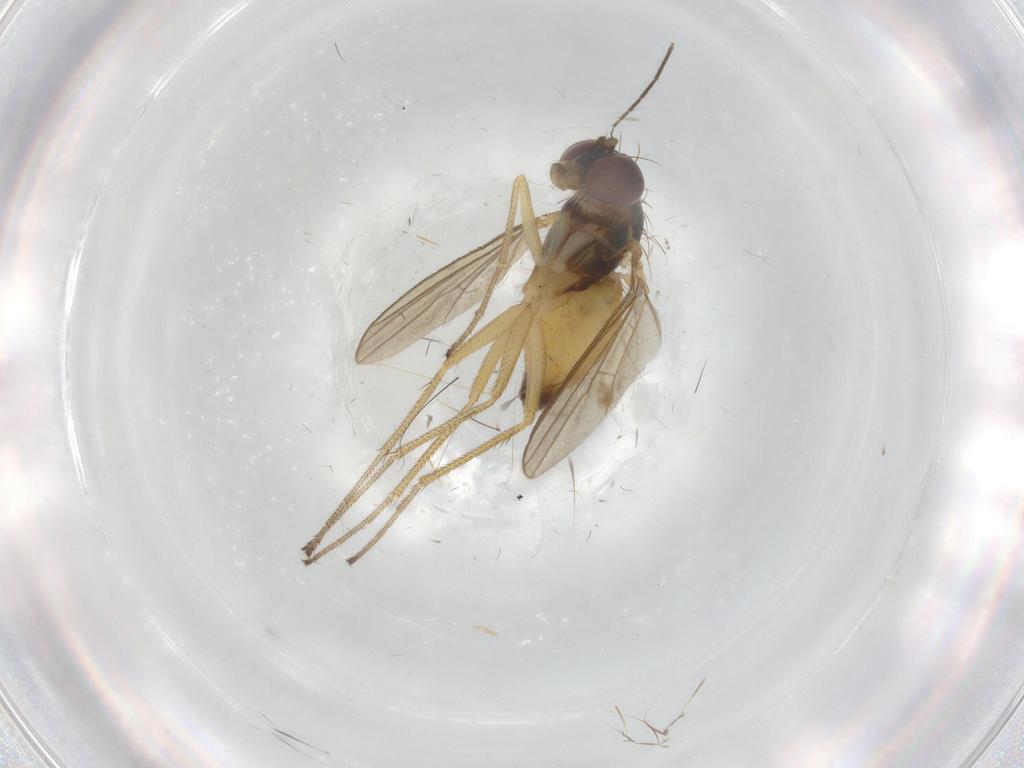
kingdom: Animalia
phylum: Arthropoda
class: Insecta
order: Diptera
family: Dolichopodidae
